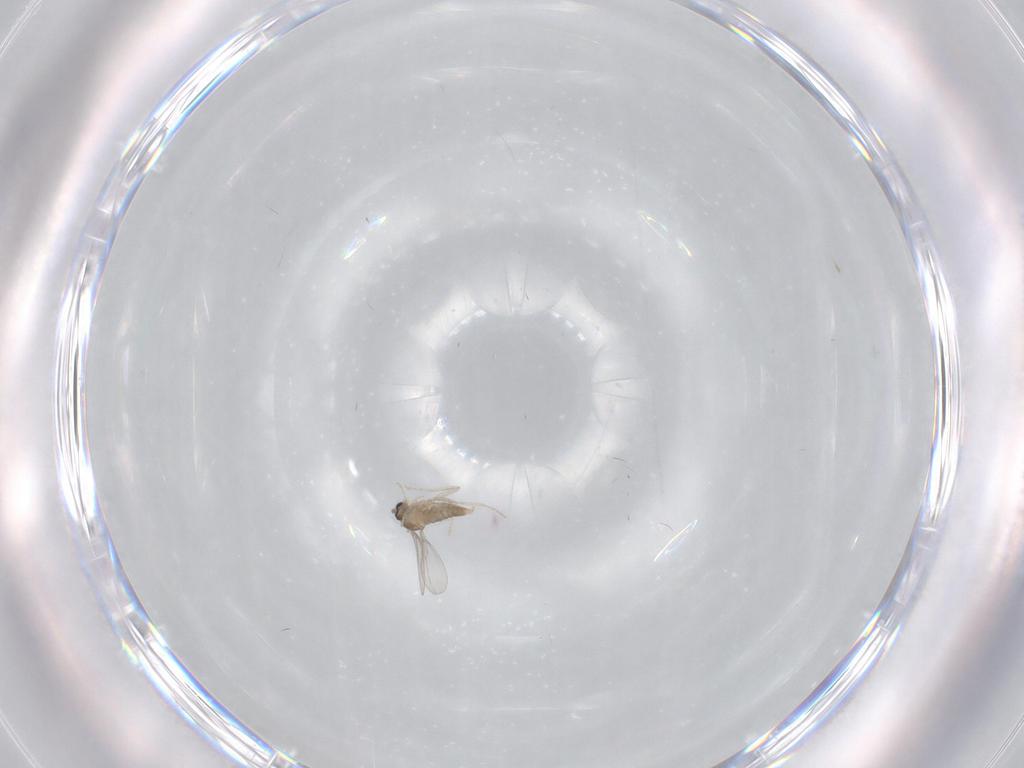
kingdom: Animalia
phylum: Arthropoda
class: Insecta
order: Diptera
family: Cecidomyiidae
